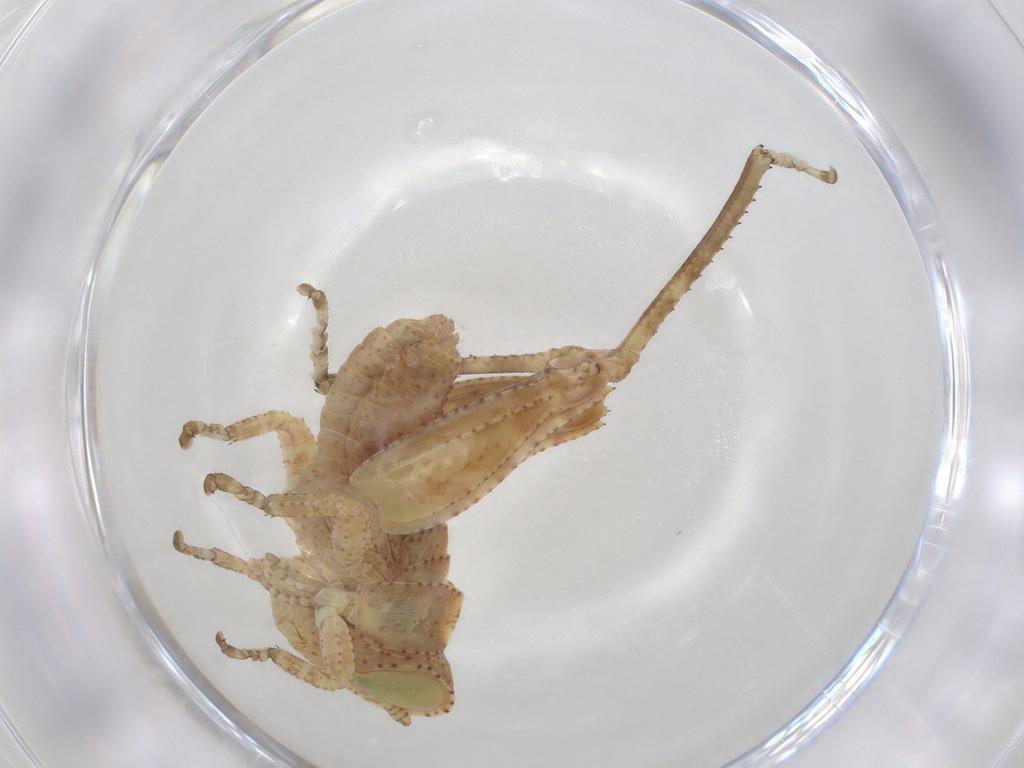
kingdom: Animalia
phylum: Arthropoda
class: Insecta
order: Orthoptera
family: Thericleidae
